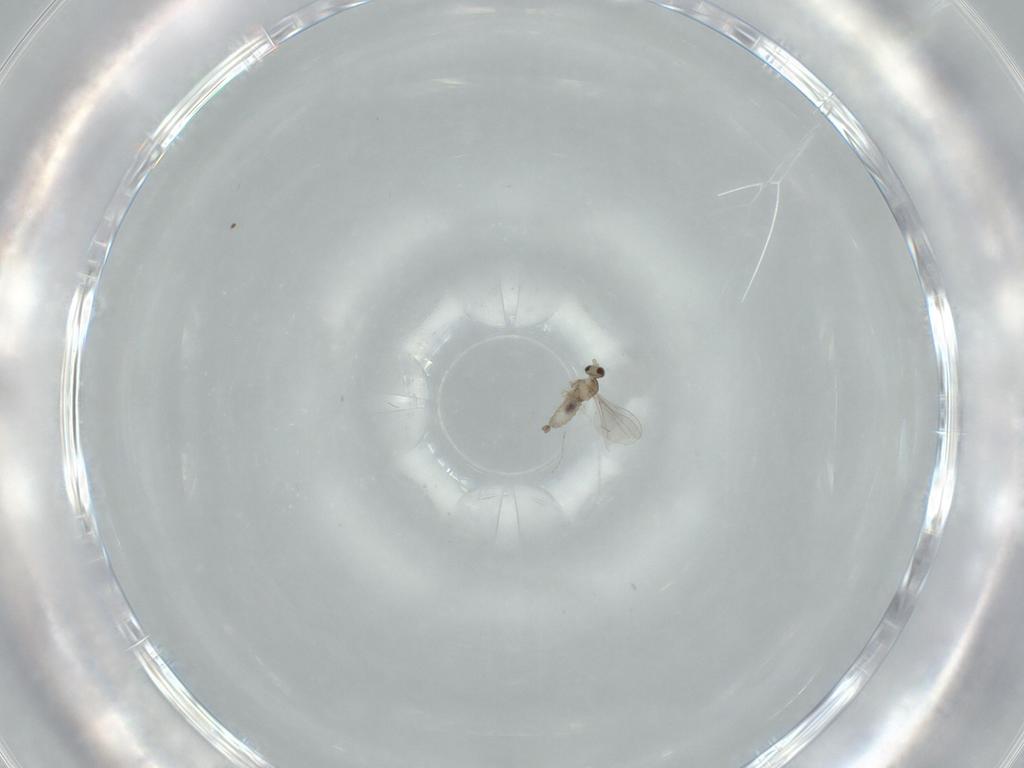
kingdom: Animalia
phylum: Arthropoda
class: Insecta
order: Diptera
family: Cecidomyiidae
